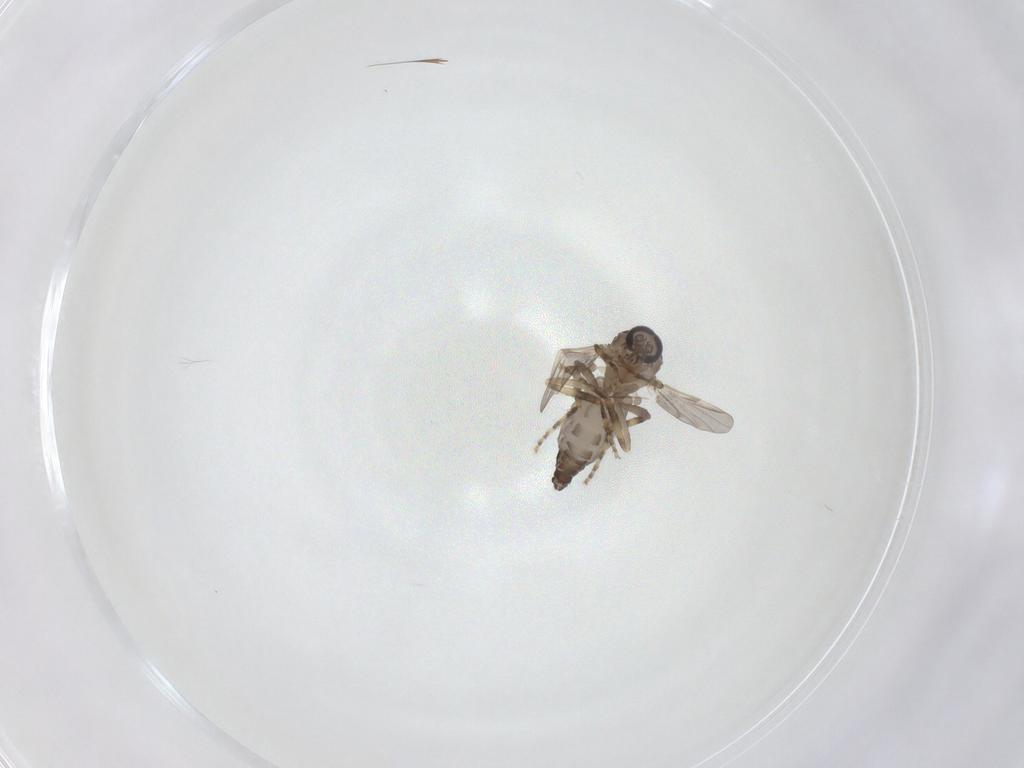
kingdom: Animalia
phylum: Arthropoda
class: Insecta
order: Diptera
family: Ceratopogonidae
